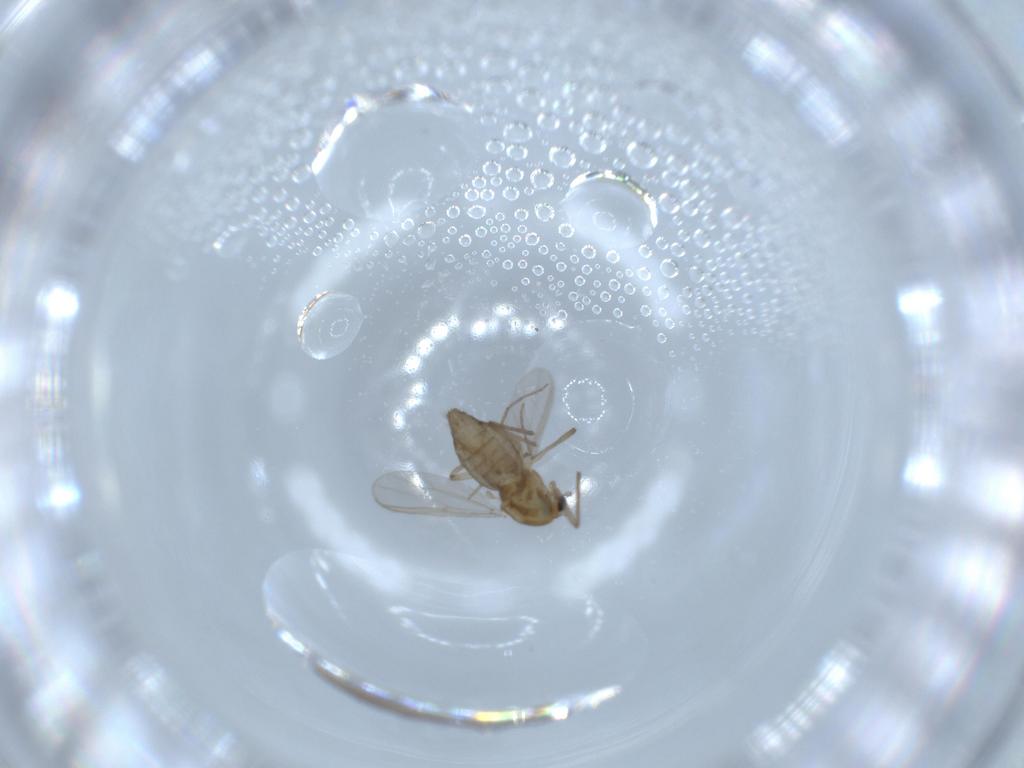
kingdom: Animalia
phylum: Arthropoda
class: Insecta
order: Diptera
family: Chironomidae
